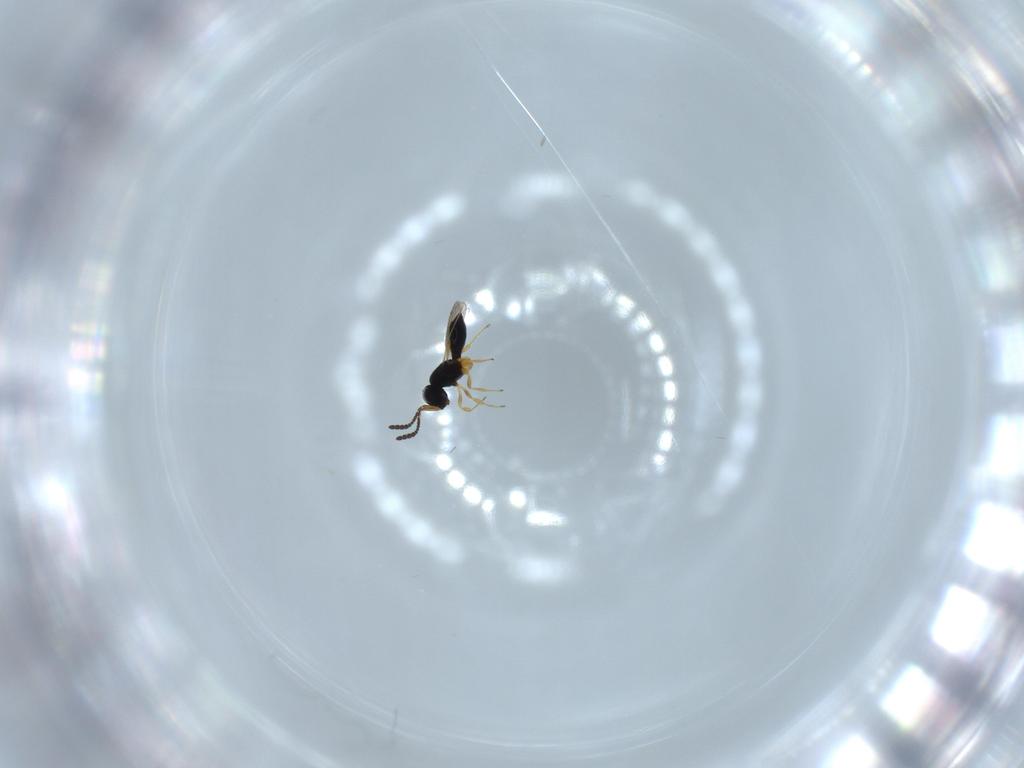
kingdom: Animalia
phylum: Arthropoda
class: Insecta
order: Hymenoptera
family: Scelionidae
